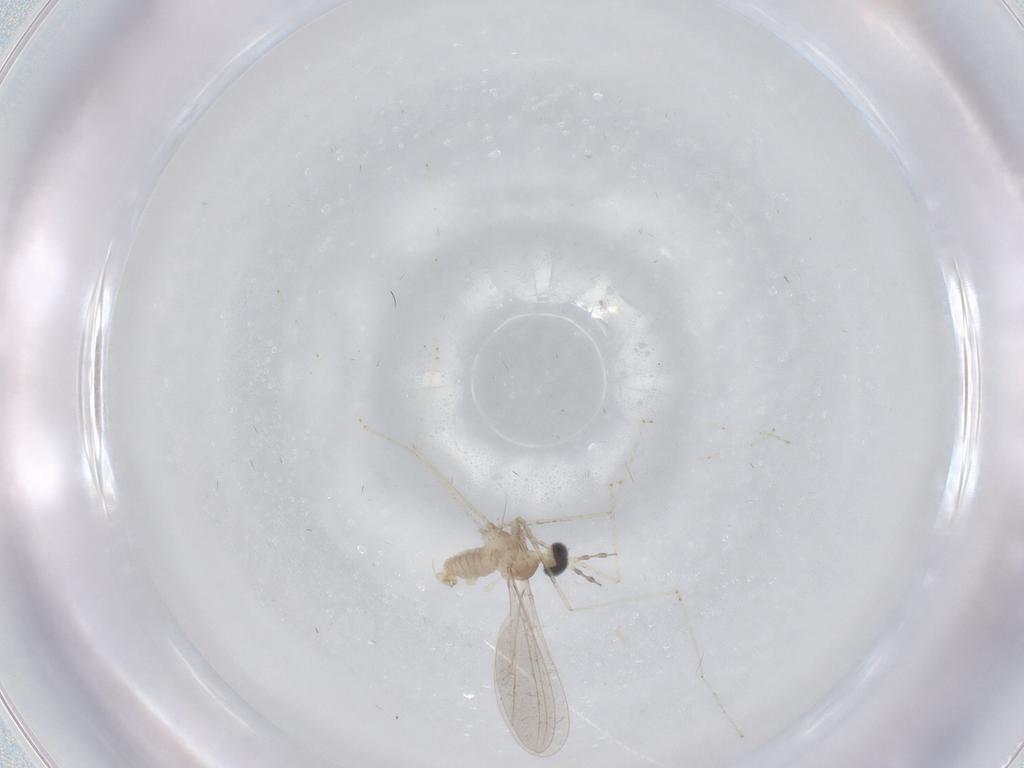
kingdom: Animalia
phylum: Arthropoda
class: Insecta
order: Diptera
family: Cecidomyiidae
